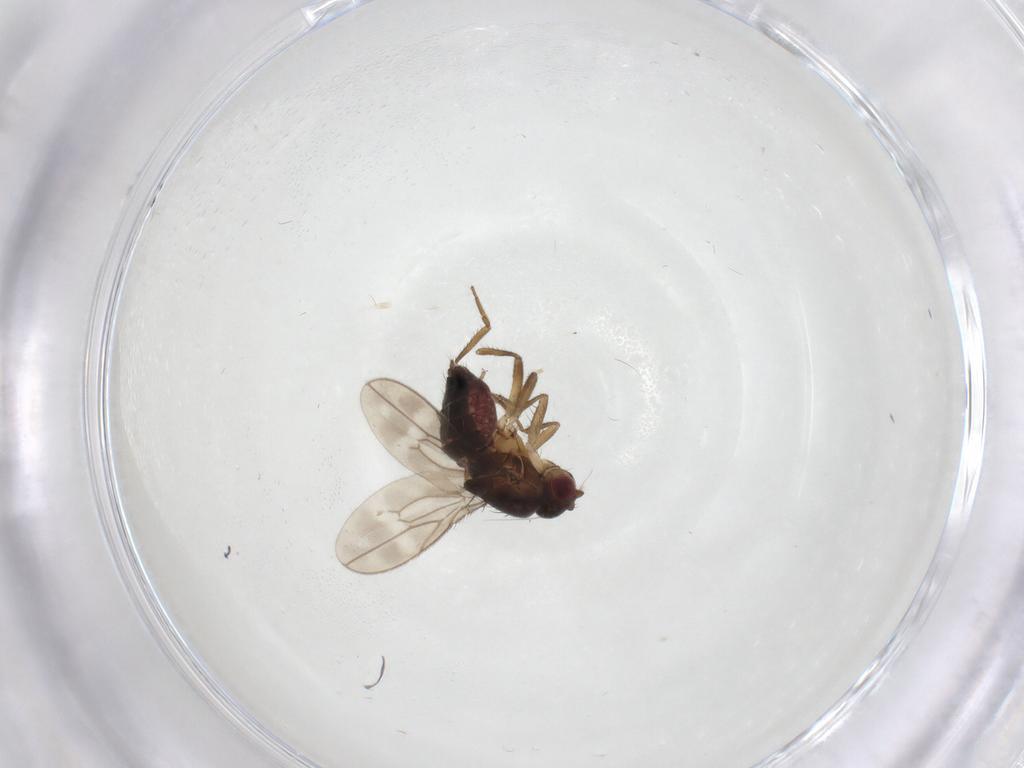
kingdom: Animalia
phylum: Arthropoda
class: Insecta
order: Diptera
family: Sphaeroceridae
